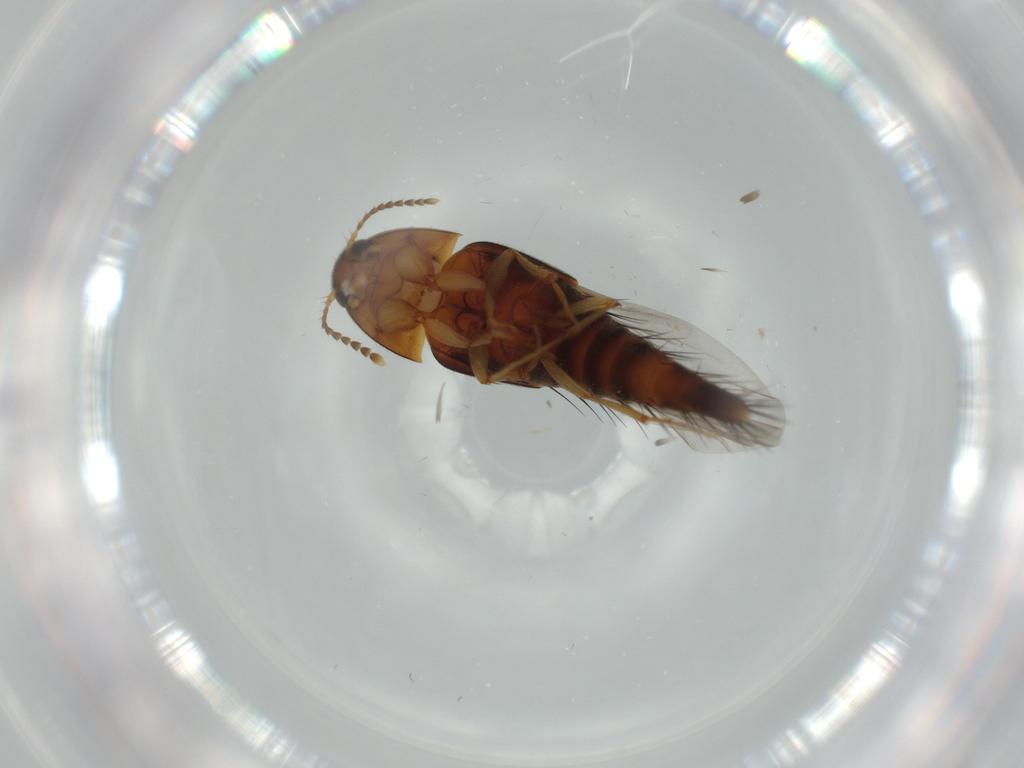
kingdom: Animalia
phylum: Arthropoda
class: Insecta
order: Coleoptera
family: Staphylinidae
